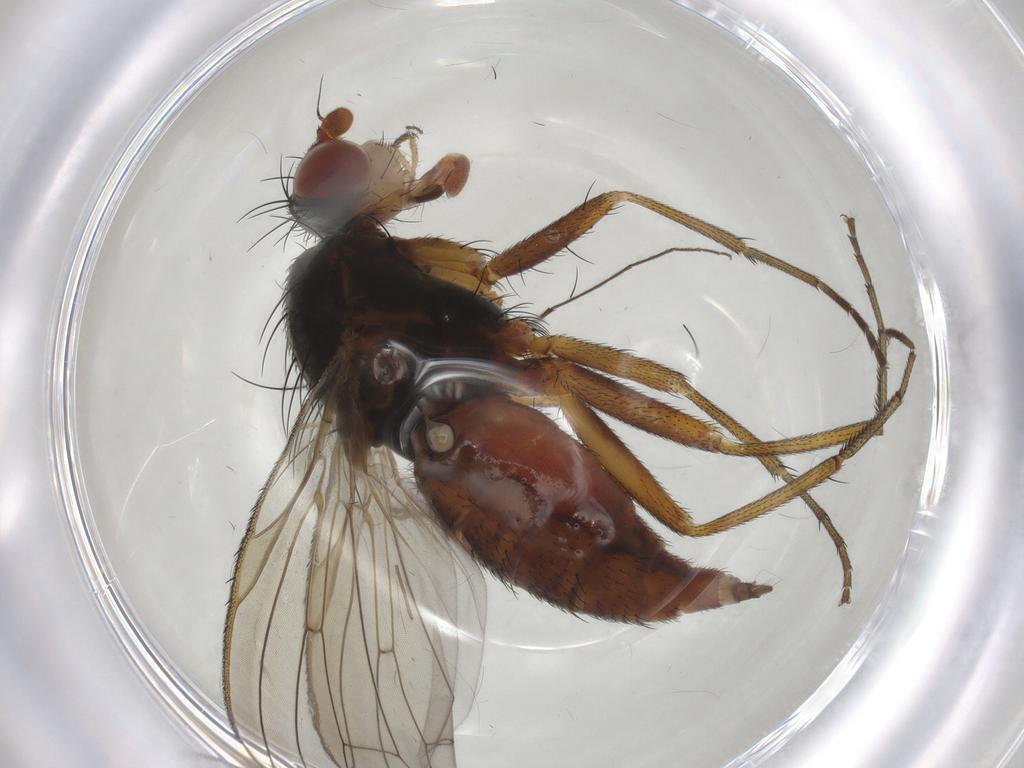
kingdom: Animalia
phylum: Arthropoda
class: Insecta
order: Diptera
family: Heleomyzidae
